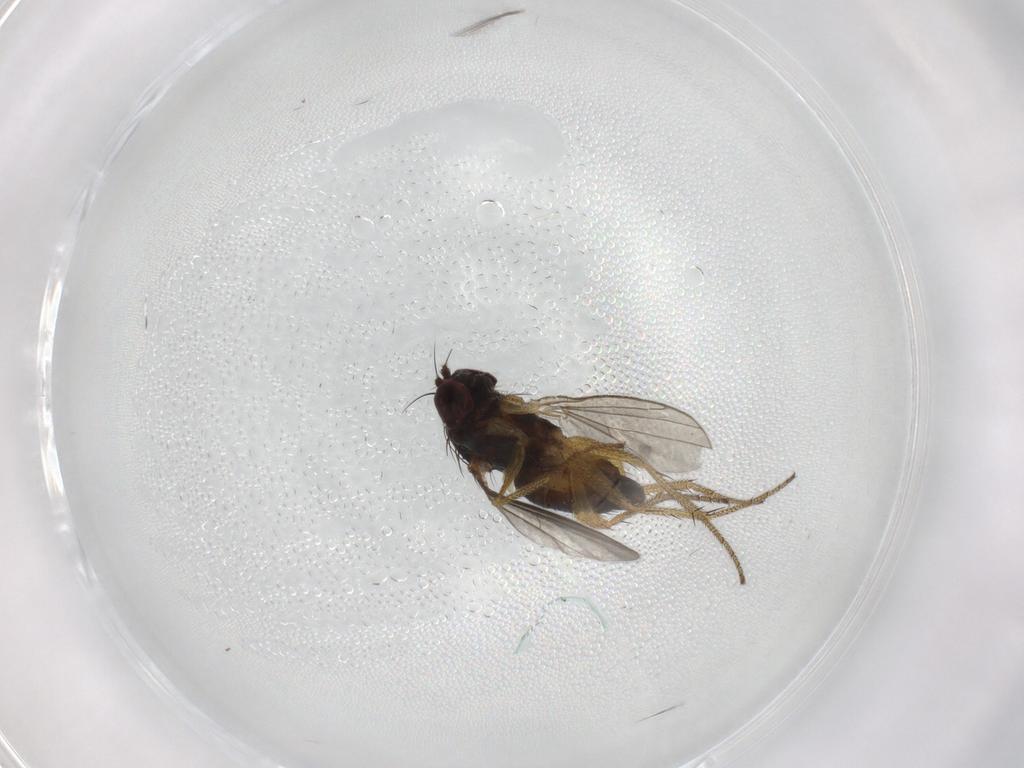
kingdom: Animalia
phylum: Arthropoda
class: Insecta
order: Diptera
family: Dolichopodidae
